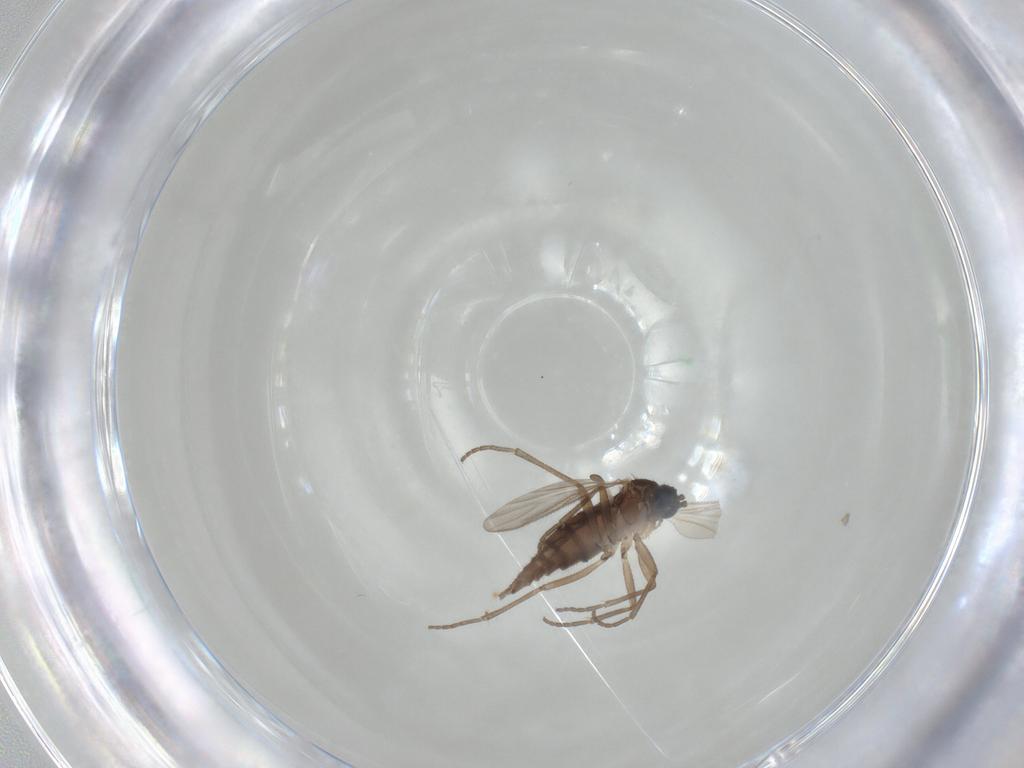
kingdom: Animalia
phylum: Arthropoda
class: Insecta
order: Diptera
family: Sciaridae
